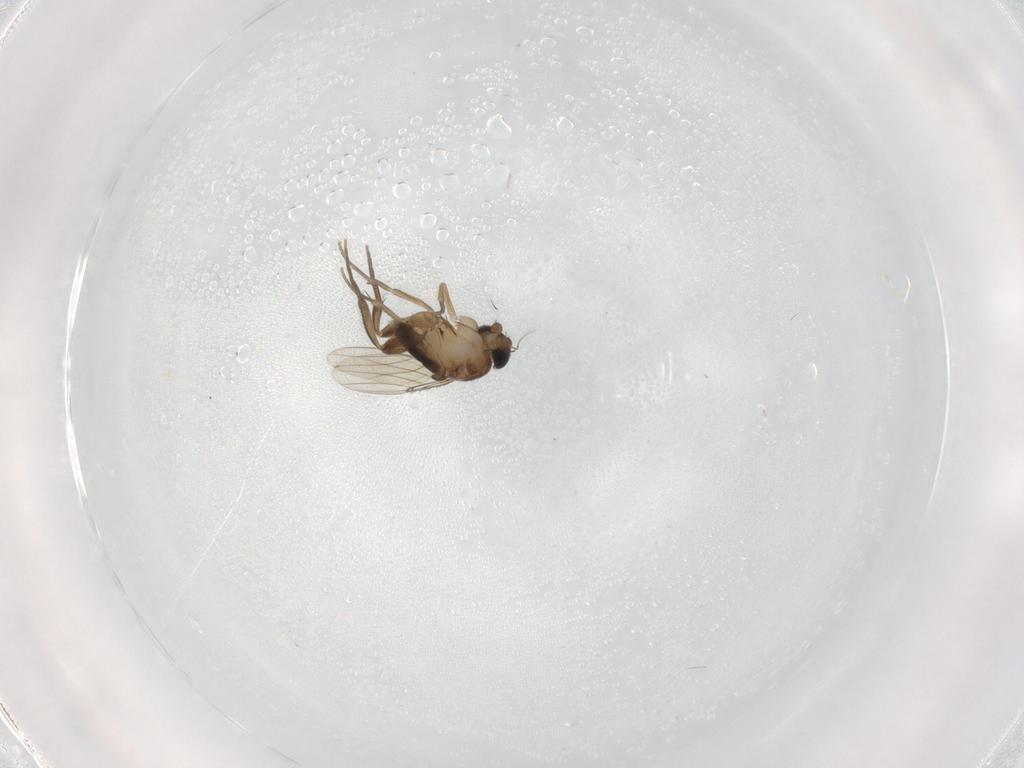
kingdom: Animalia
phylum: Arthropoda
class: Insecta
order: Diptera
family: Phoridae
